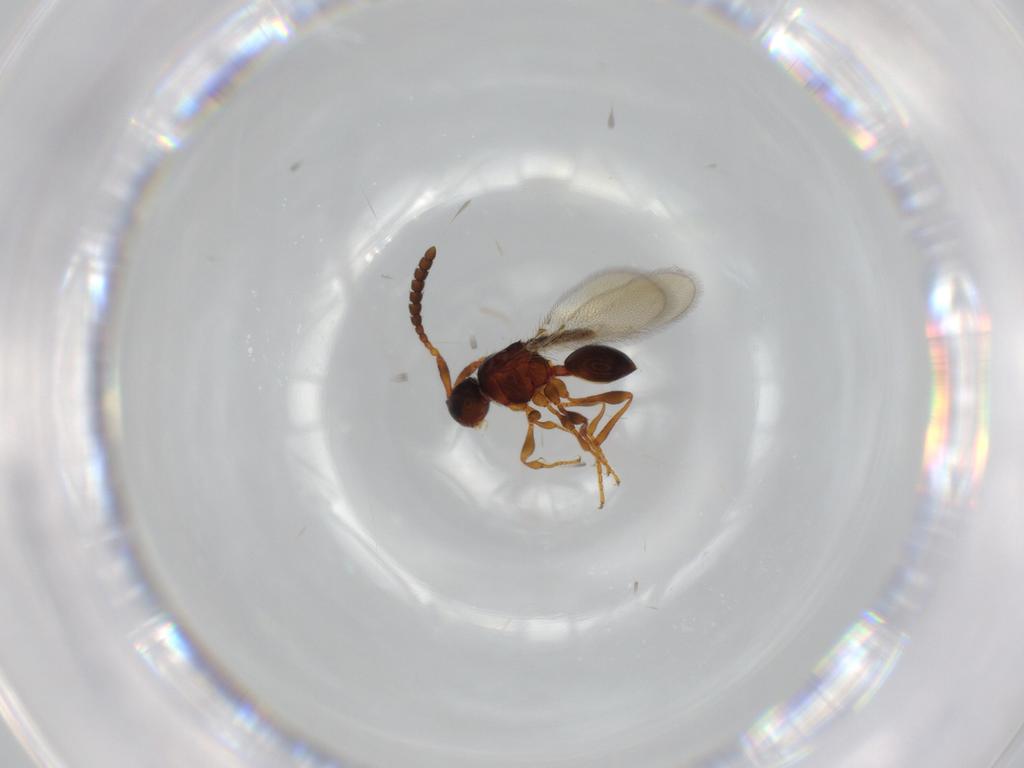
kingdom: Animalia
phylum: Arthropoda
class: Insecta
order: Hymenoptera
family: Diapriidae
